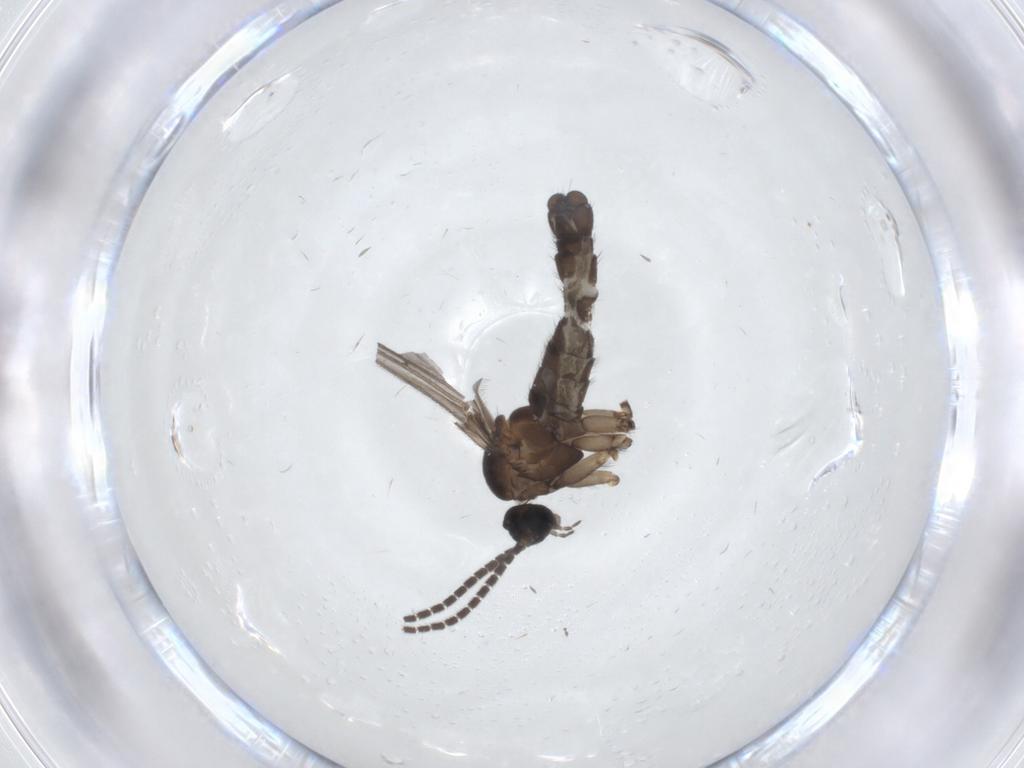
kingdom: Animalia
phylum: Arthropoda
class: Insecta
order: Diptera
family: Sciaridae
